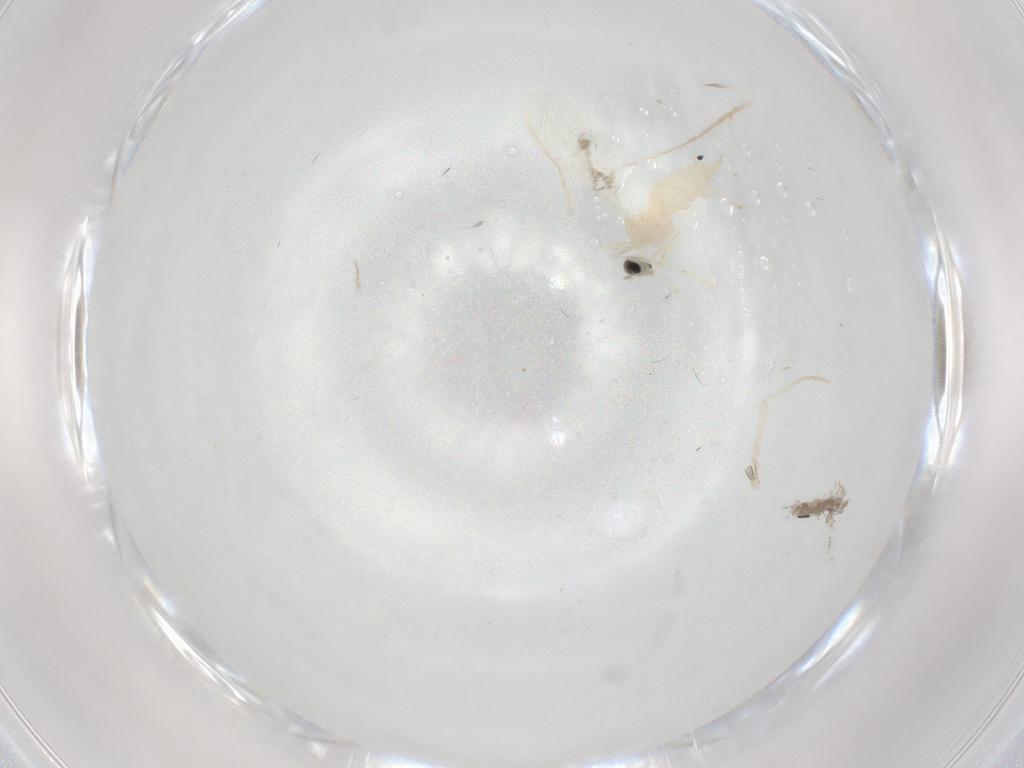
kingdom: Animalia
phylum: Arthropoda
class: Insecta
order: Diptera
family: Cecidomyiidae
